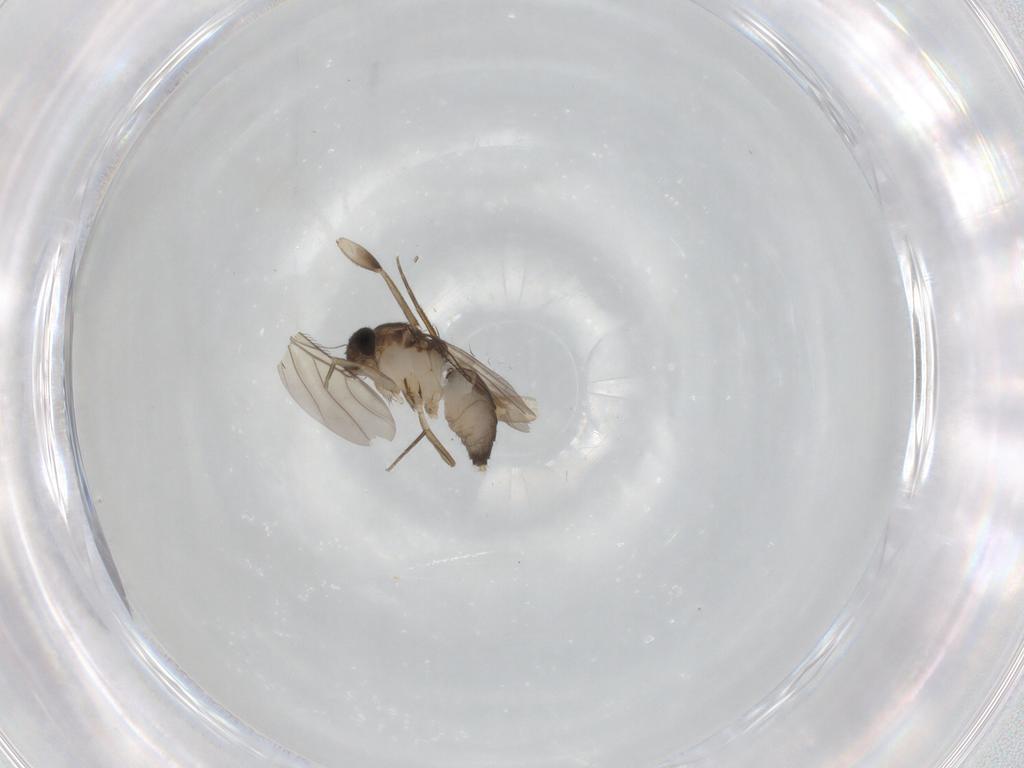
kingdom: Animalia
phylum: Arthropoda
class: Insecta
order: Diptera
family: Phoridae
